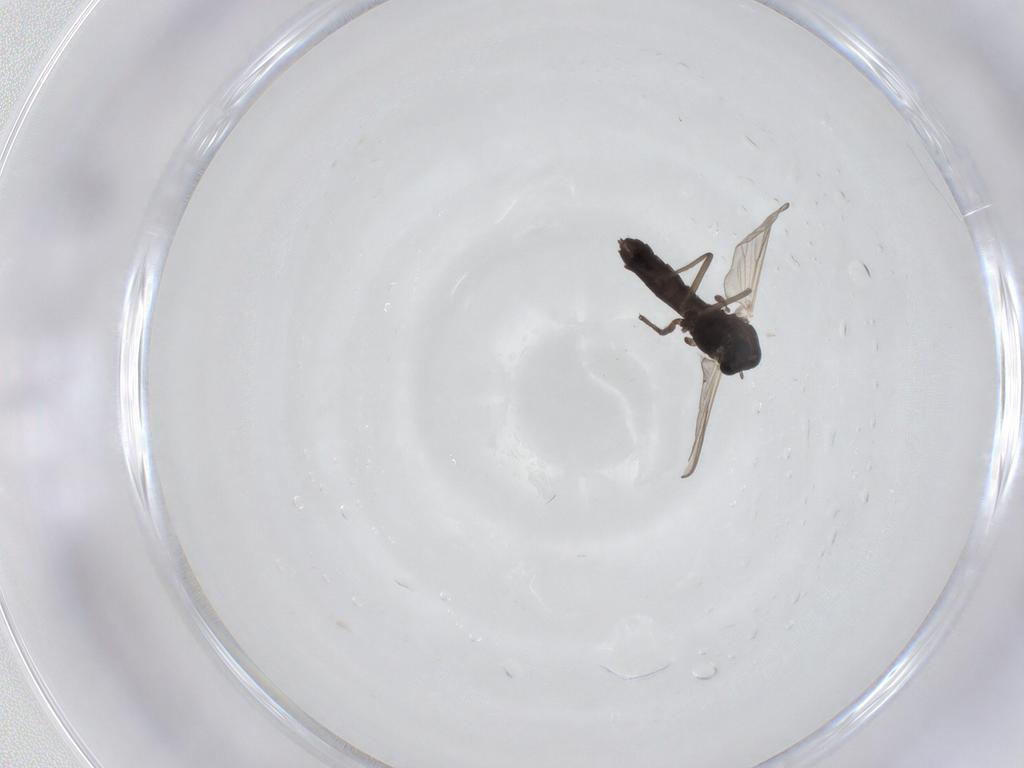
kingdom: Animalia
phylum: Arthropoda
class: Insecta
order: Diptera
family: Chironomidae
